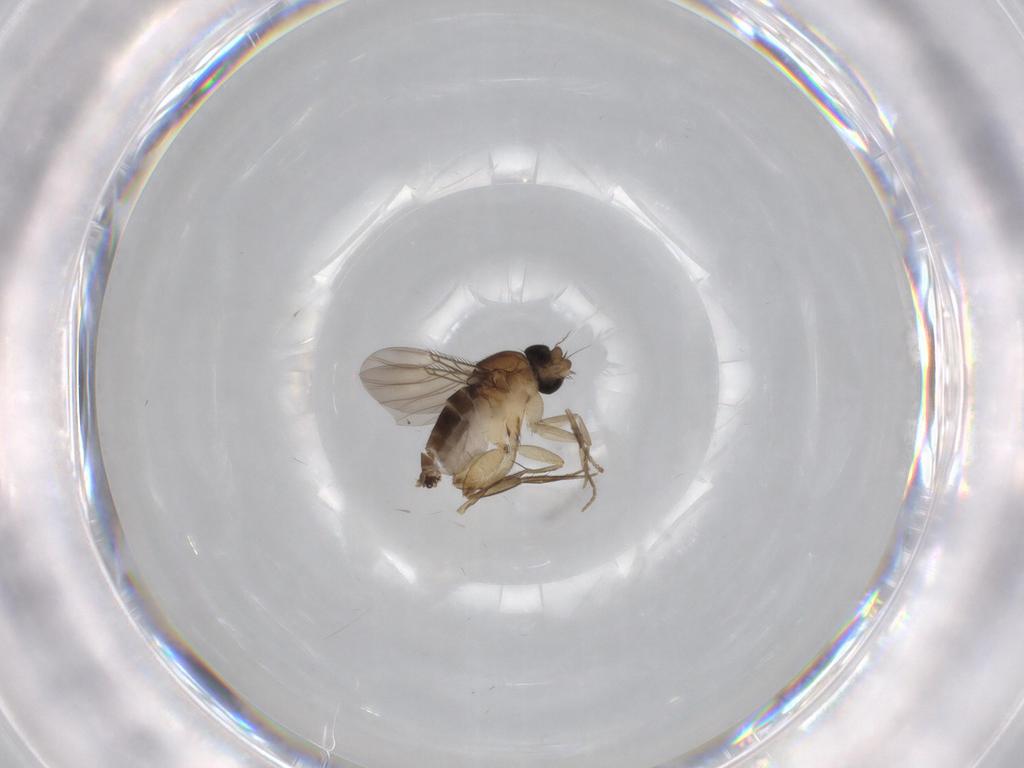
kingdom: Animalia
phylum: Arthropoda
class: Insecta
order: Diptera
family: Phoridae
